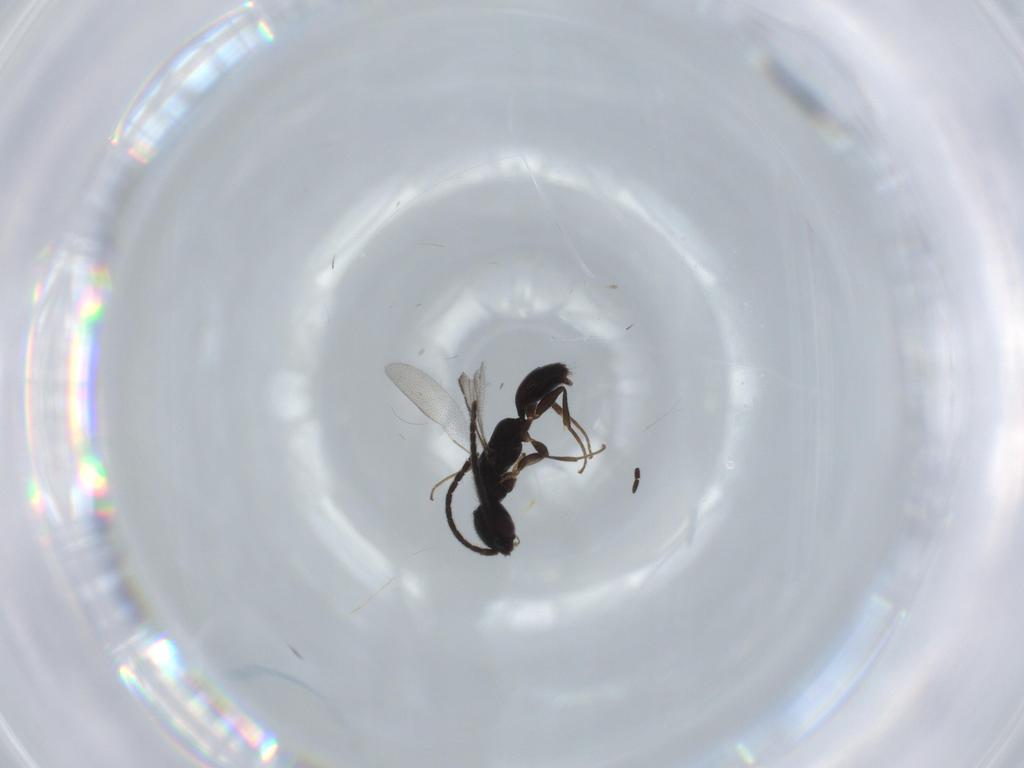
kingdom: Animalia
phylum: Arthropoda
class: Insecta
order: Hymenoptera
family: Bethylidae
